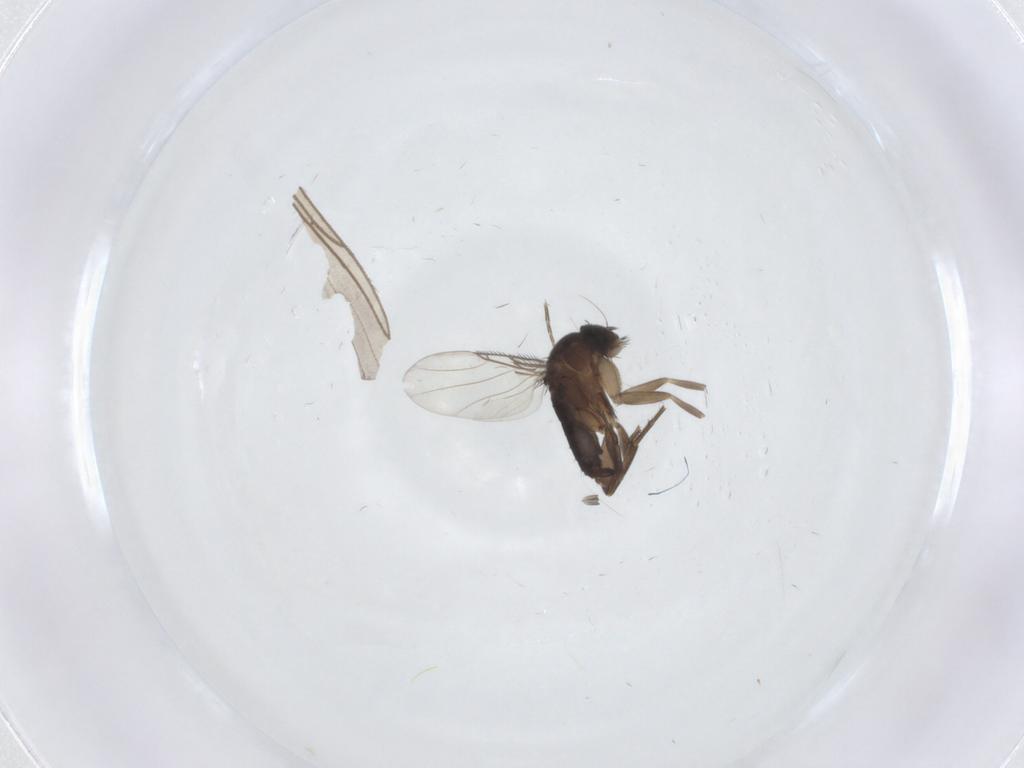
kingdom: Animalia
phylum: Arthropoda
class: Insecta
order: Diptera
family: Phoridae
